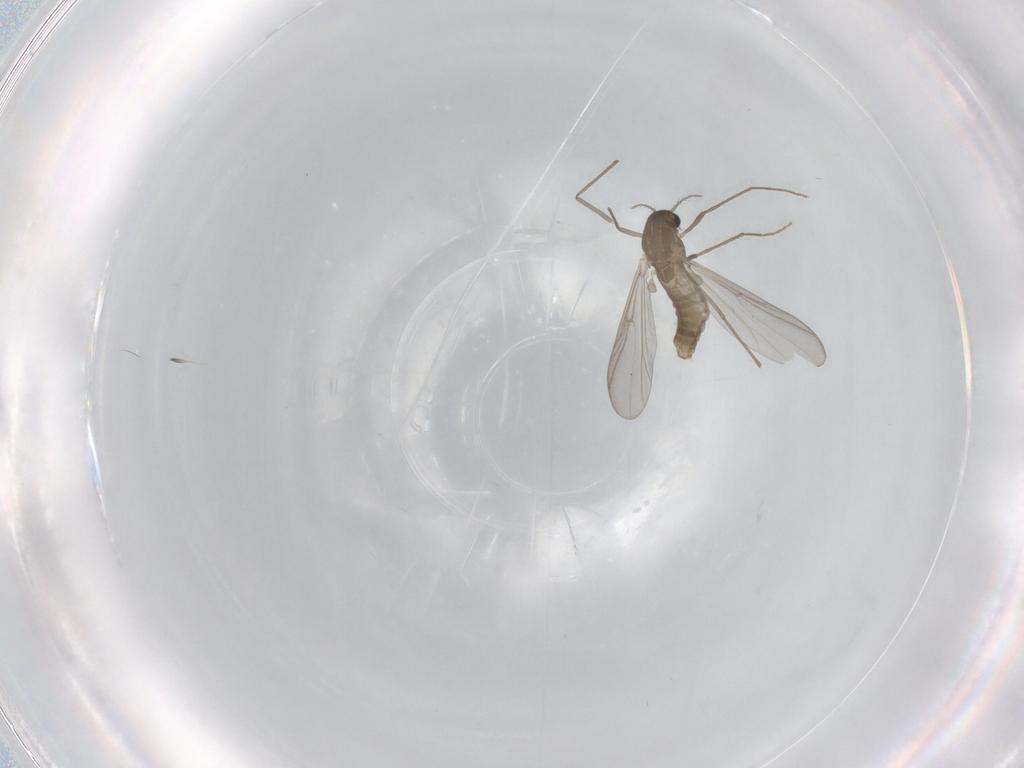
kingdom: Animalia
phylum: Arthropoda
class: Insecta
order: Diptera
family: Chironomidae
